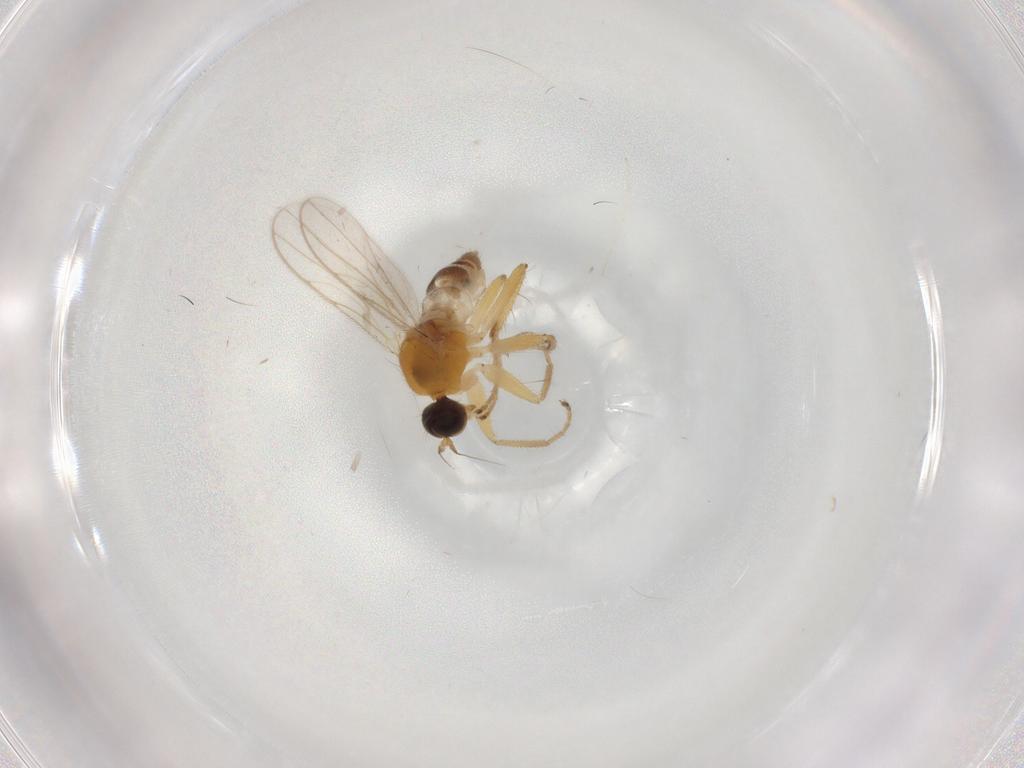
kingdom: Animalia
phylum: Arthropoda
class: Insecta
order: Diptera
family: Hybotidae
